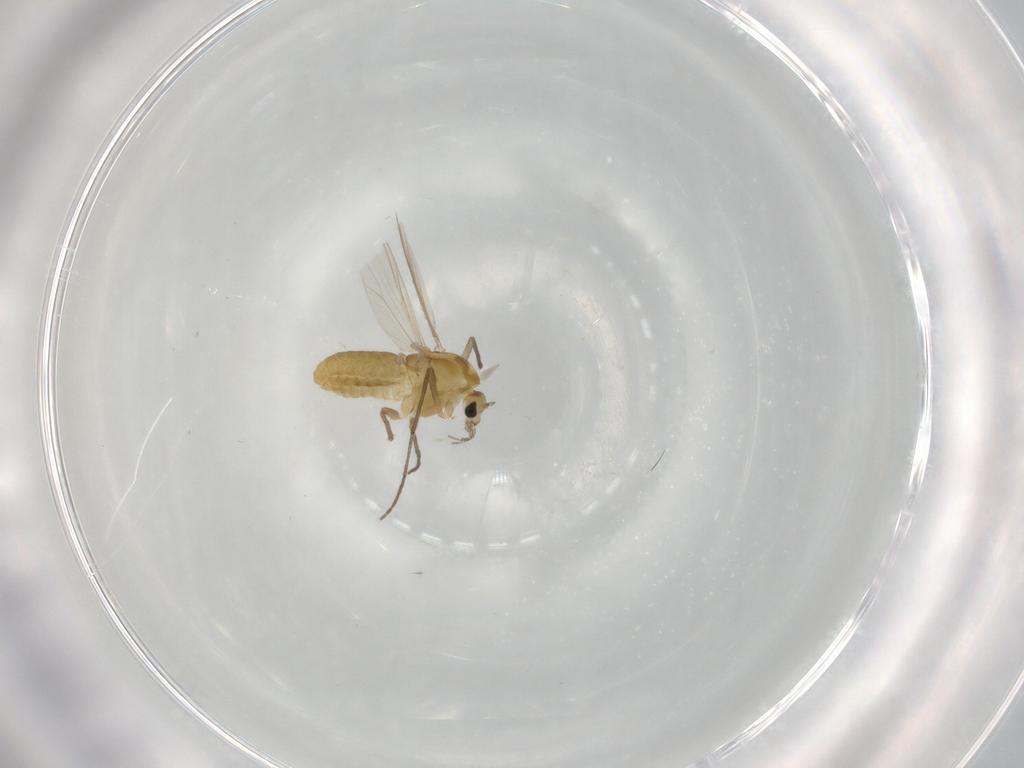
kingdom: Animalia
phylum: Arthropoda
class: Insecta
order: Diptera
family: Chironomidae
